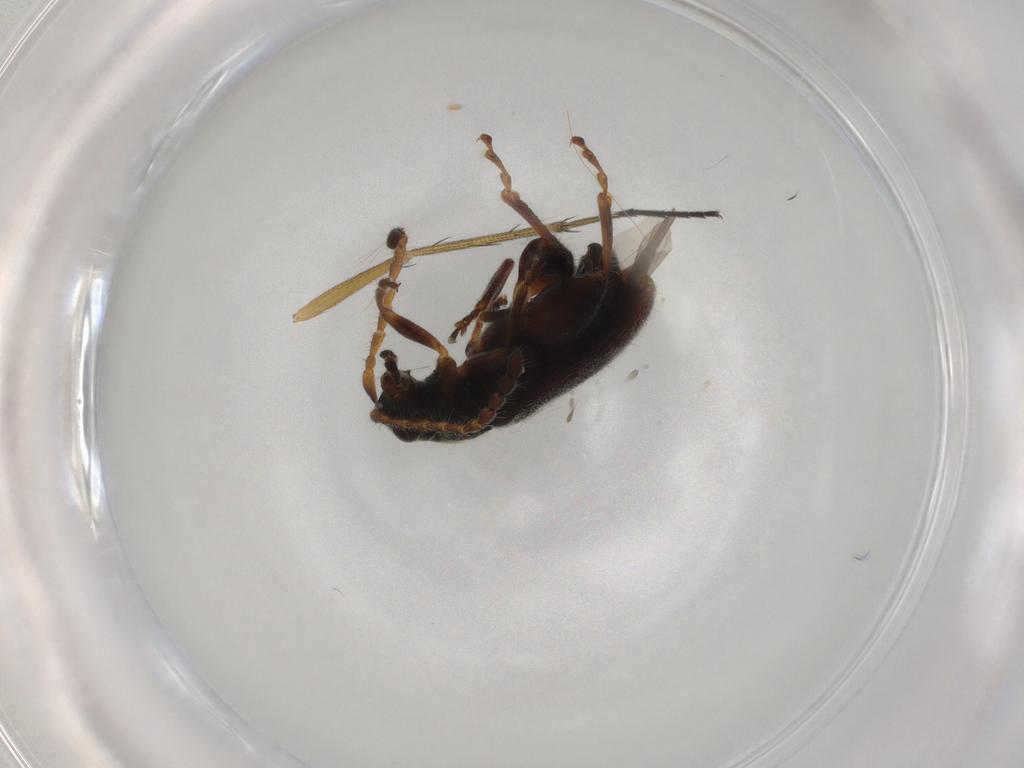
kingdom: Animalia
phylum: Arthropoda
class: Insecta
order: Coleoptera
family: Chrysomelidae
